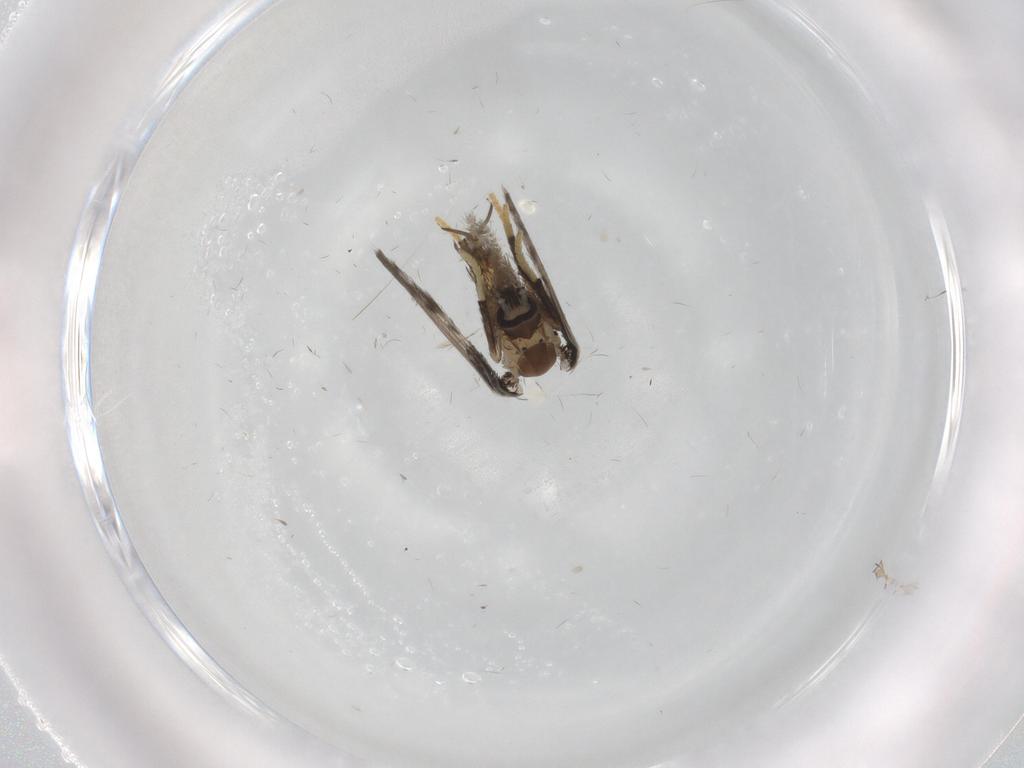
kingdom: Animalia
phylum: Arthropoda
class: Insecta
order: Diptera
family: Cecidomyiidae
